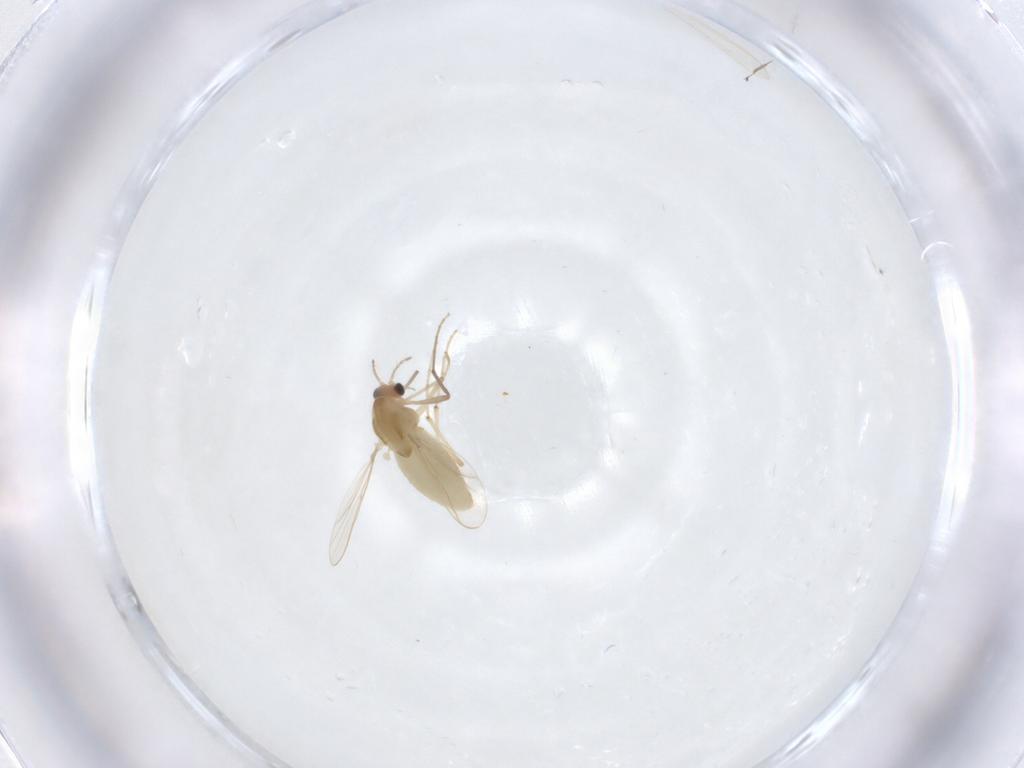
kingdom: Animalia
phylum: Arthropoda
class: Insecta
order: Diptera
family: Chironomidae
